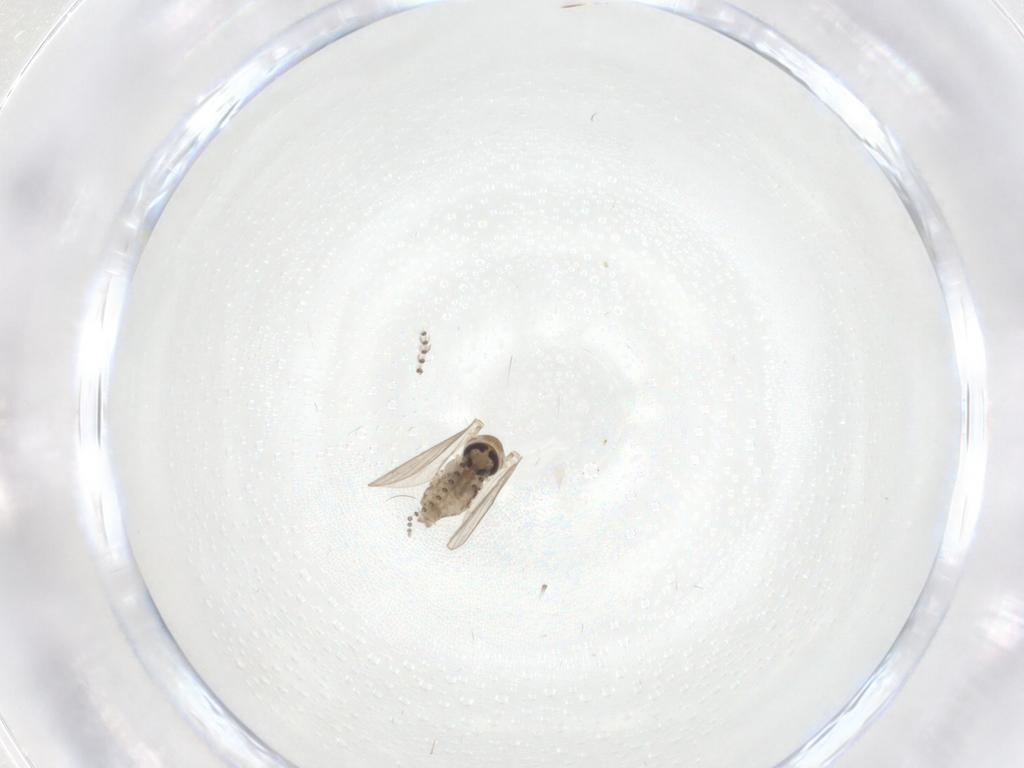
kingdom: Animalia
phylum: Arthropoda
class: Insecta
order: Diptera
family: Psychodidae
